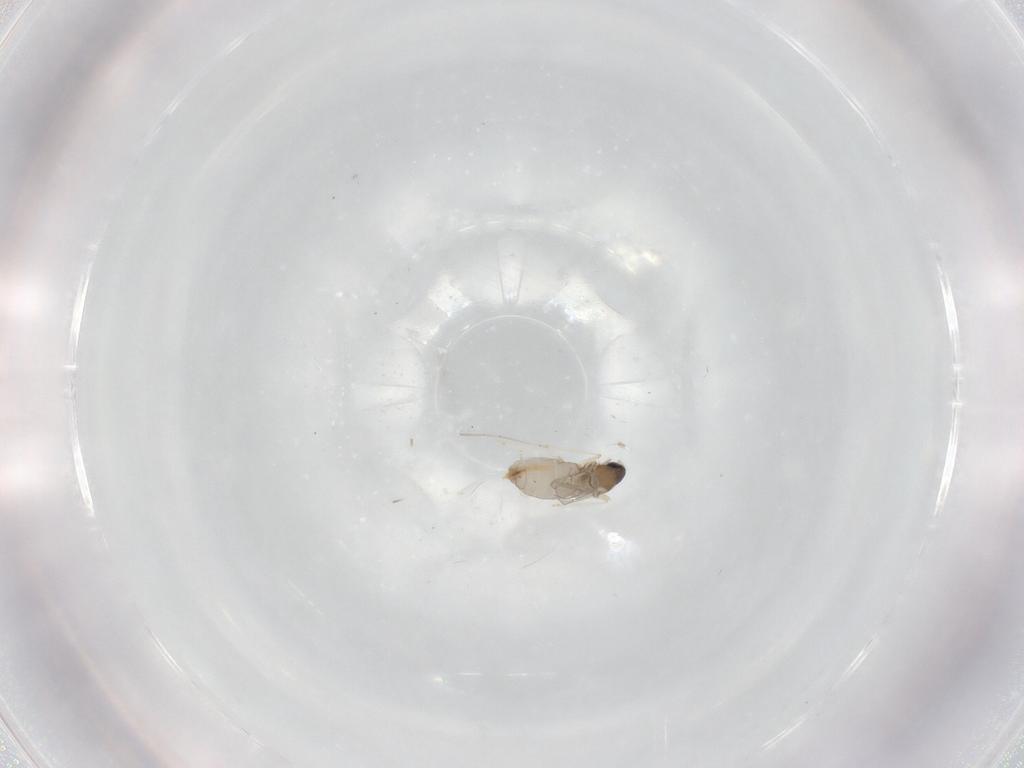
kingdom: Animalia
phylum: Arthropoda
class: Insecta
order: Diptera
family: Cecidomyiidae
